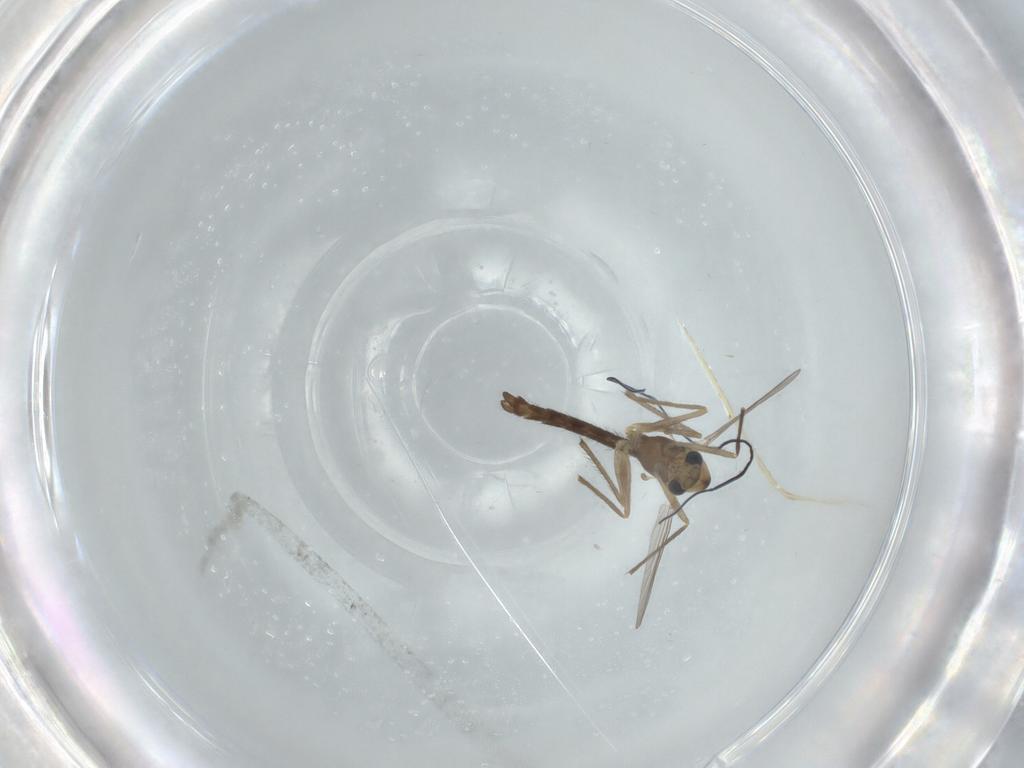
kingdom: Animalia
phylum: Arthropoda
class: Insecta
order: Diptera
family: Chironomidae
